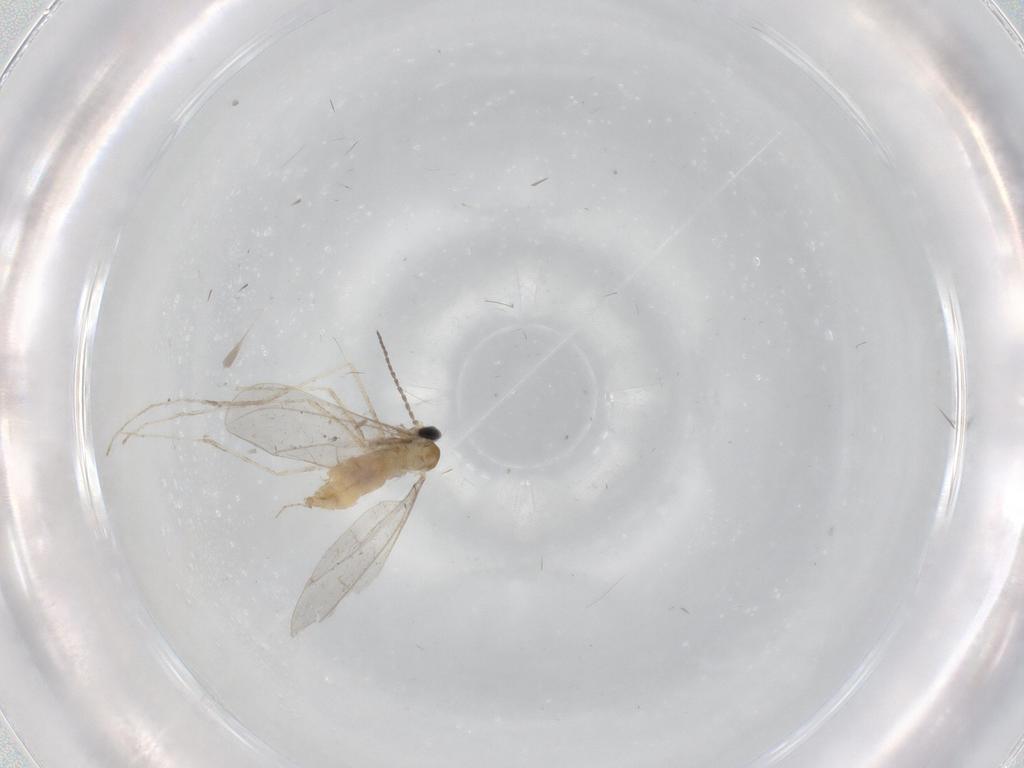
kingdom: Animalia
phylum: Arthropoda
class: Insecta
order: Diptera
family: Cecidomyiidae
